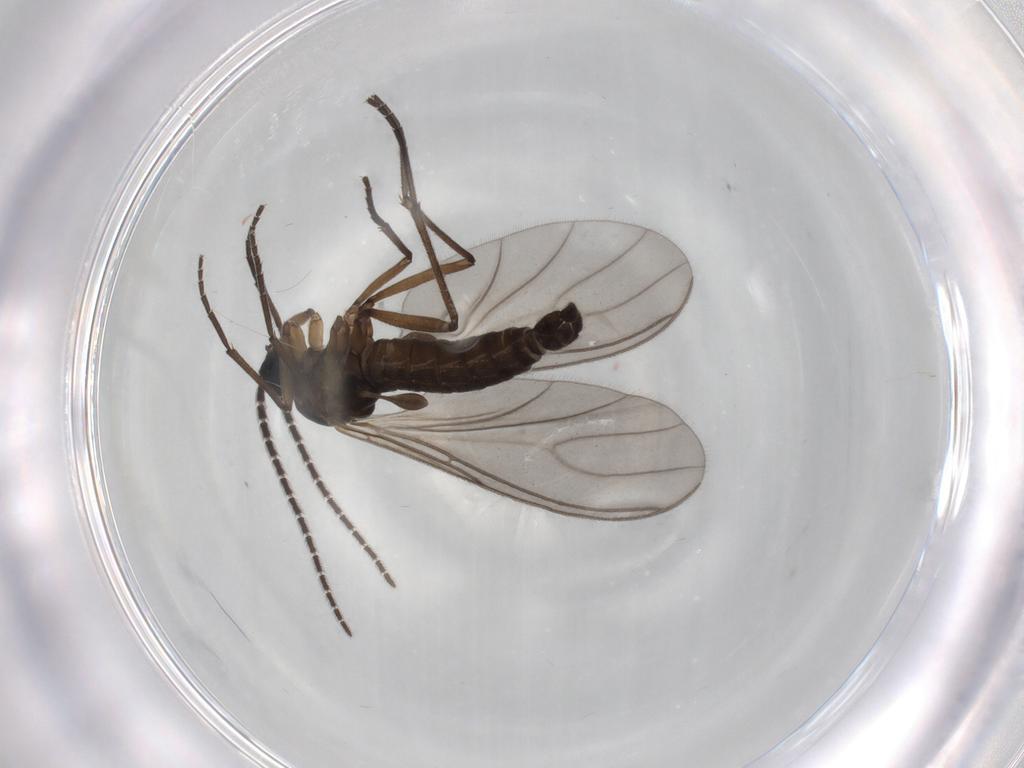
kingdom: Animalia
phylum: Arthropoda
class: Insecta
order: Diptera
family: Sciaridae
